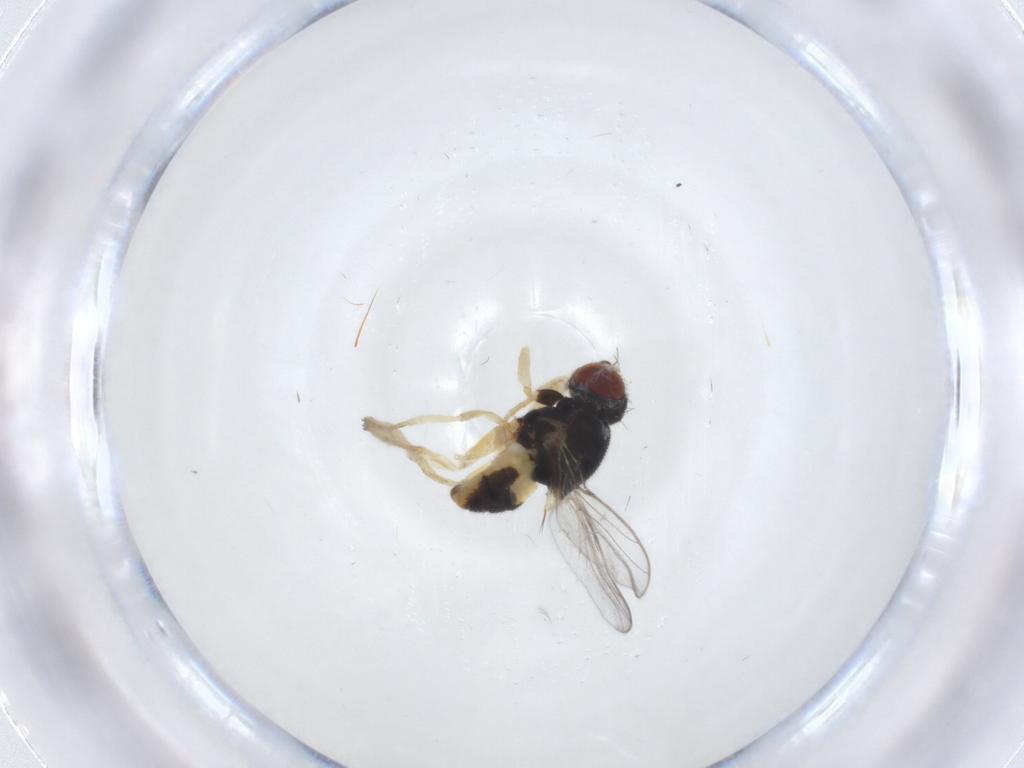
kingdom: Animalia
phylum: Arthropoda
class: Insecta
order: Diptera
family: Chloropidae
